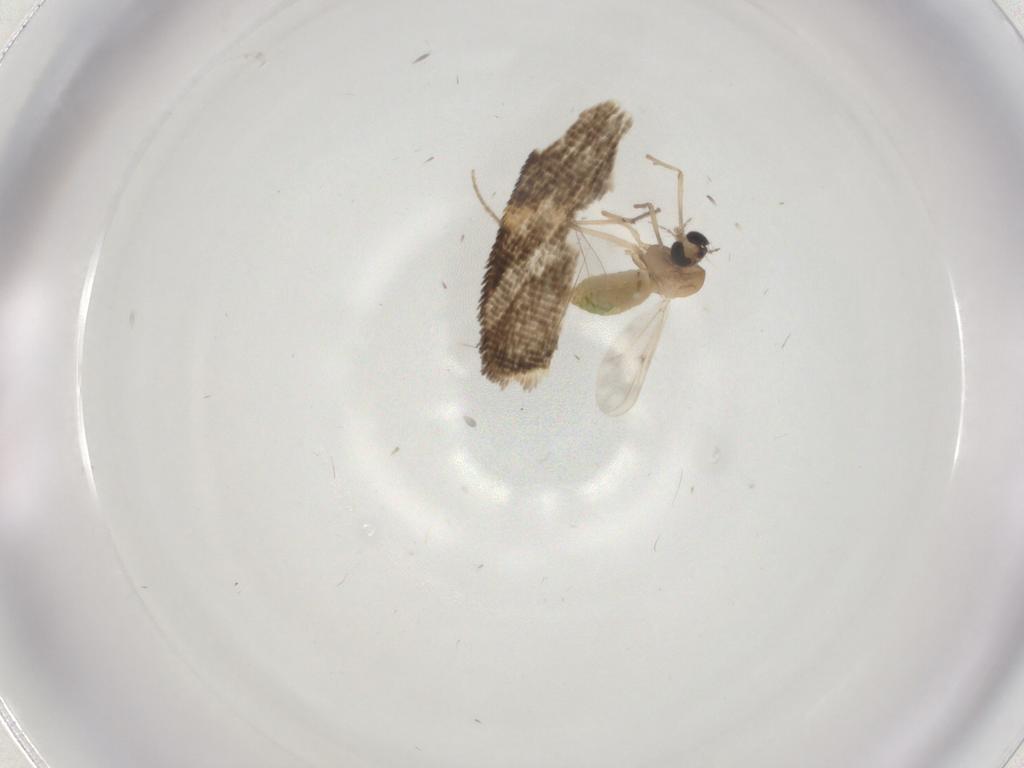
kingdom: Animalia
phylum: Arthropoda
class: Insecta
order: Diptera
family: Chironomidae
